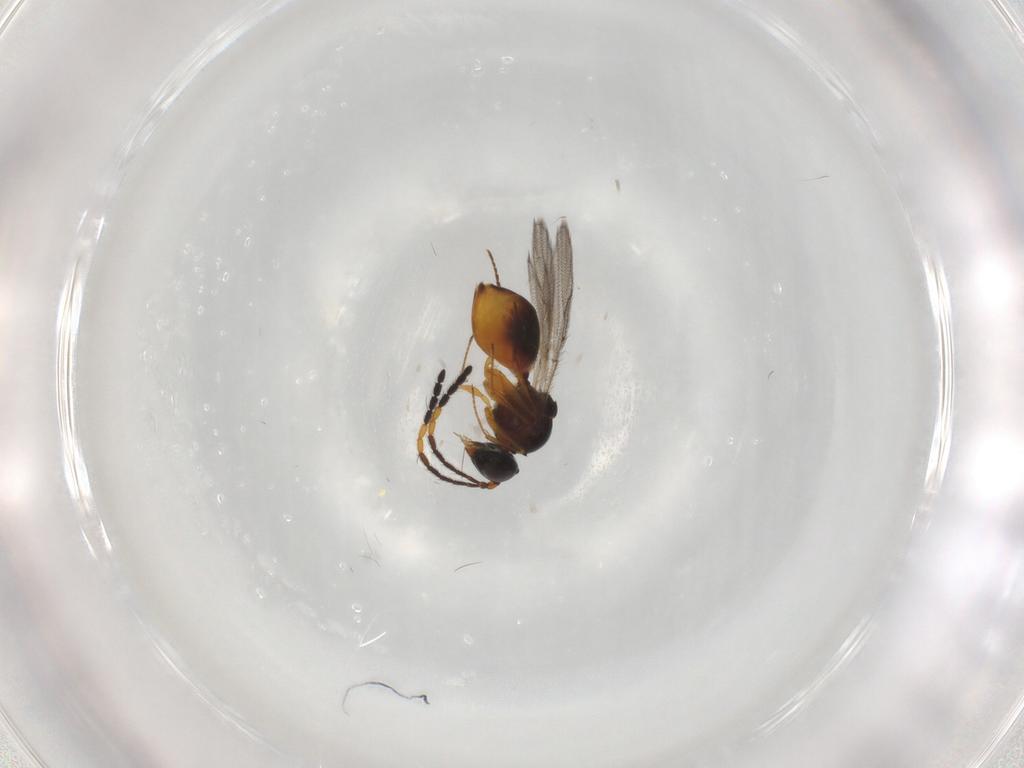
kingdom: Animalia
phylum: Arthropoda
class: Insecta
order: Hymenoptera
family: Figitidae
